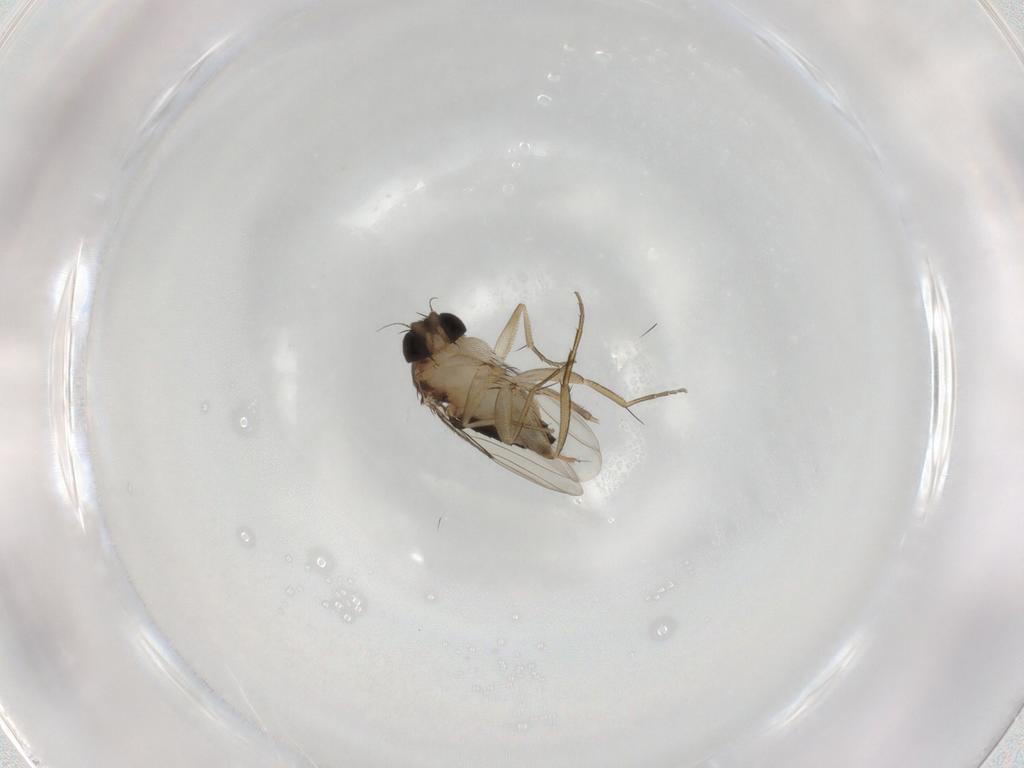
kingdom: Animalia
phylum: Arthropoda
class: Insecta
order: Diptera
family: Phoridae
